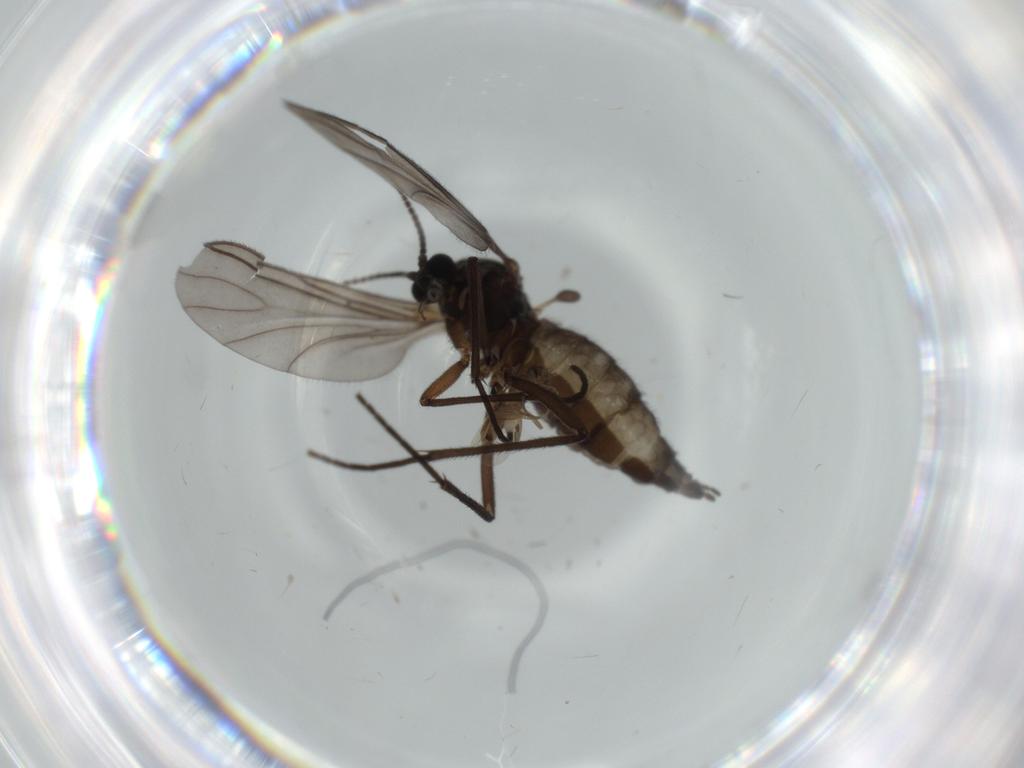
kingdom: Animalia
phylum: Arthropoda
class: Insecta
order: Diptera
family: Sciaridae
